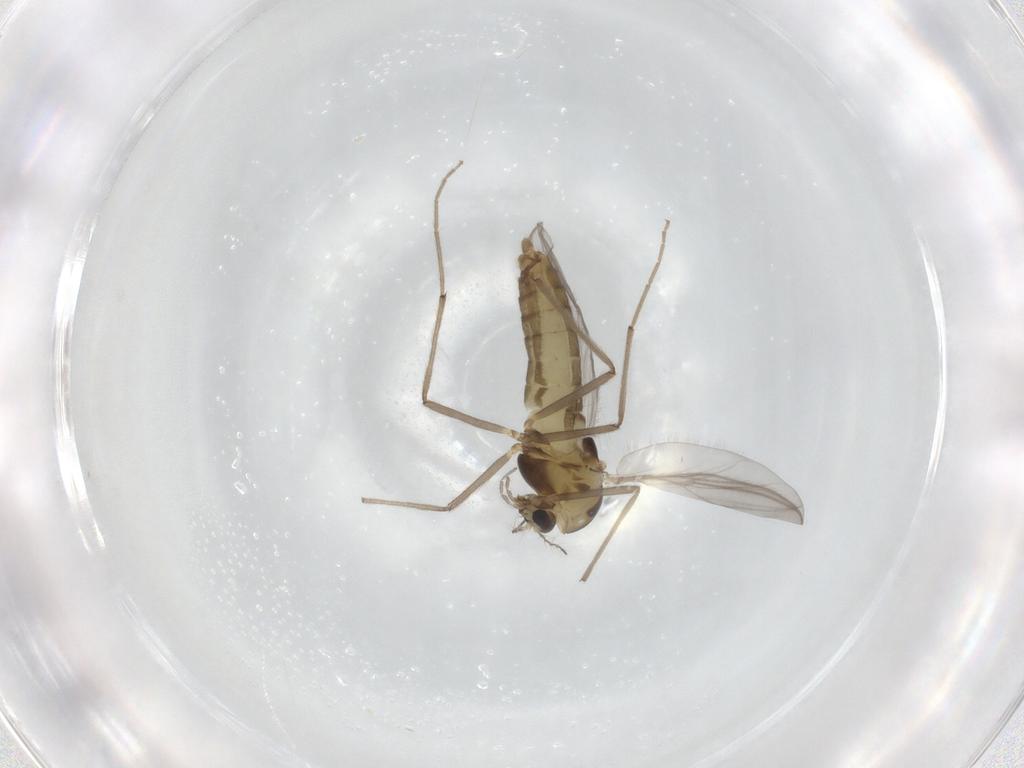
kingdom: Animalia
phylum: Arthropoda
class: Insecta
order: Diptera
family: Chironomidae
